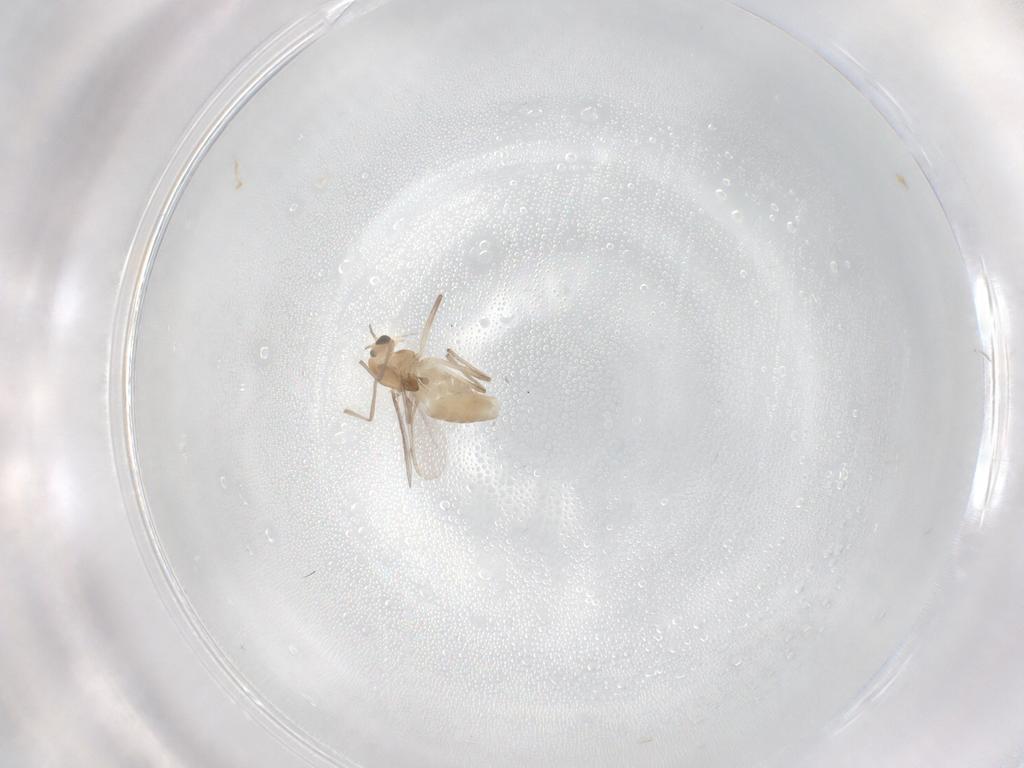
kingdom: Animalia
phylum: Arthropoda
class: Insecta
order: Diptera
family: Chironomidae
